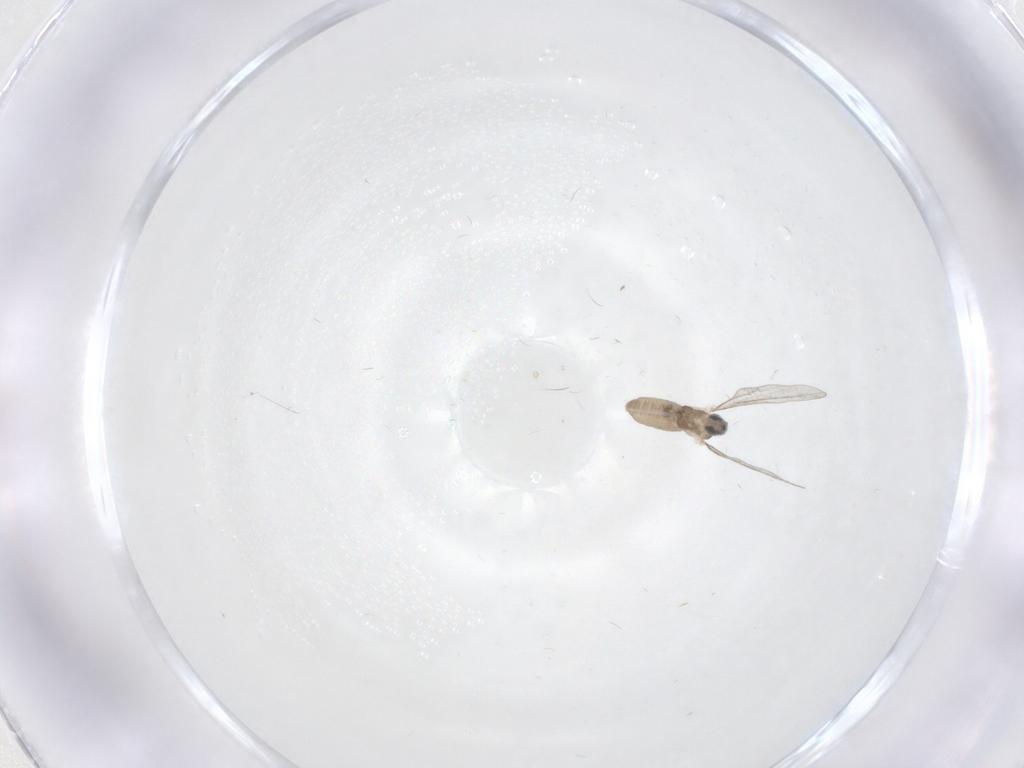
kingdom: Animalia
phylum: Arthropoda
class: Insecta
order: Diptera
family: Cecidomyiidae
